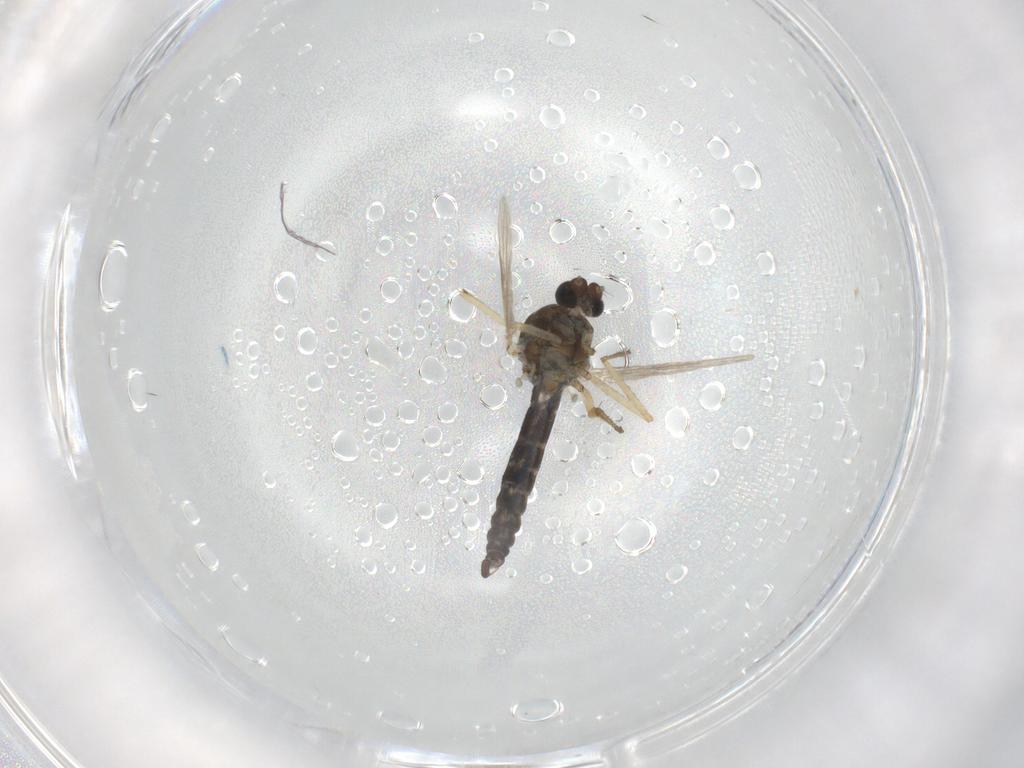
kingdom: Animalia
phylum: Arthropoda
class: Insecta
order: Diptera
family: Ceratopogonidae
